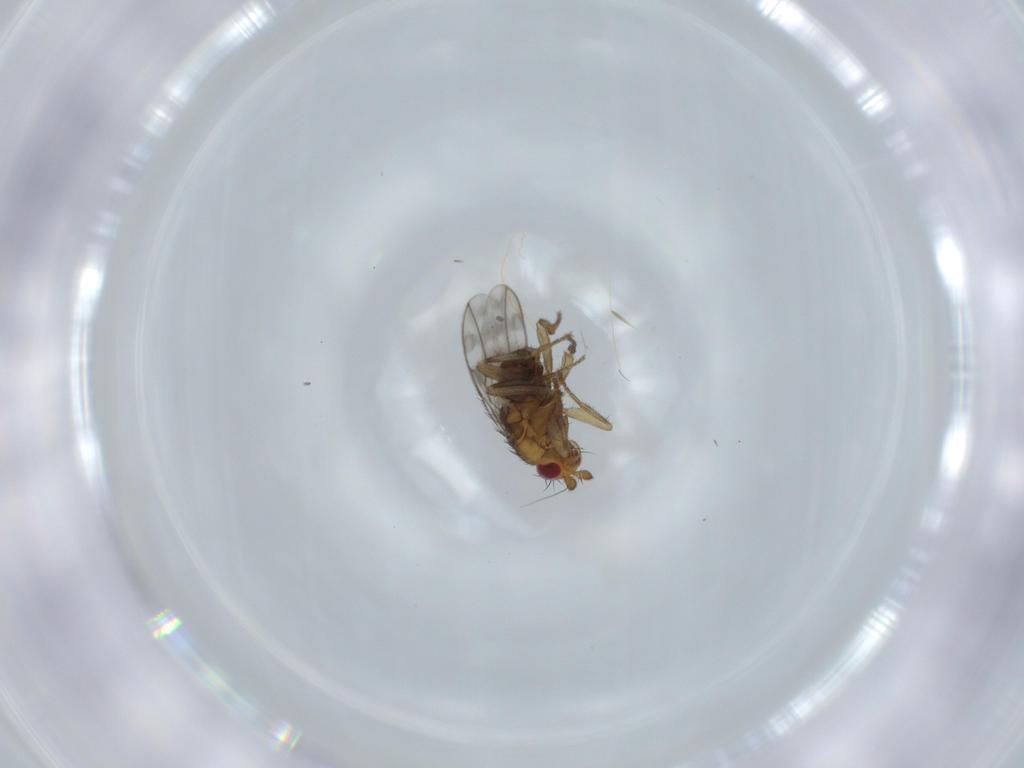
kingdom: Animalia
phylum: Arthropoda
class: Insecta
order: Diptera
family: Sphaeroceridae
